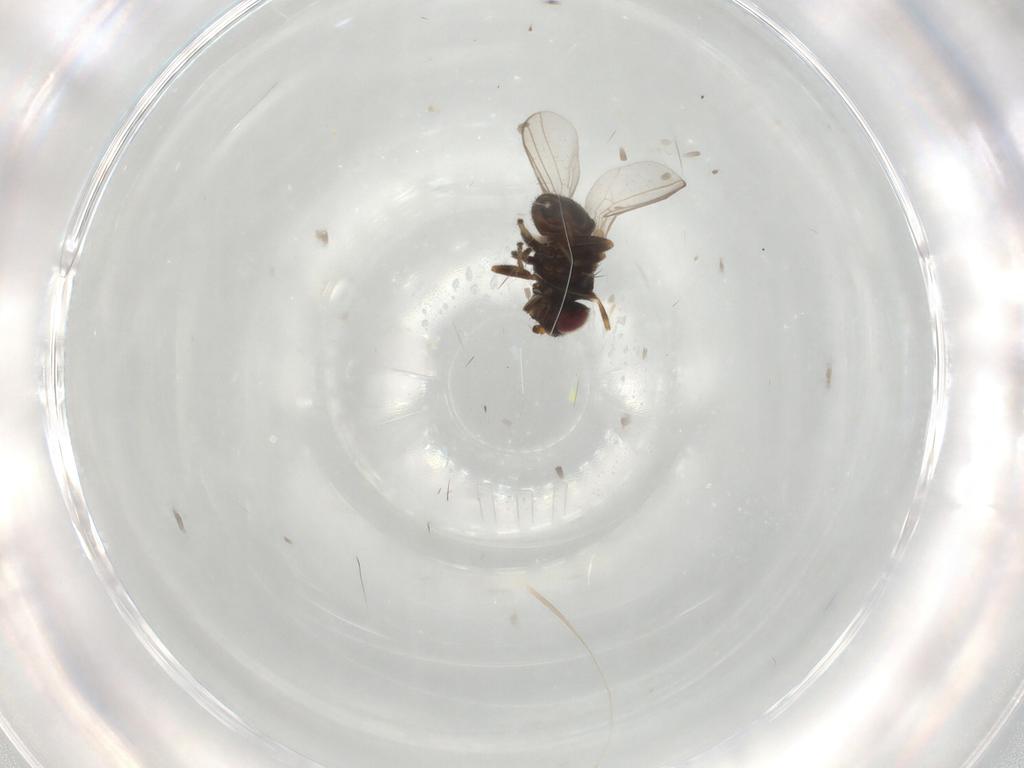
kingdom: Animalia
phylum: Arthropoda
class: Insecta
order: Diptera
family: Chloropidae
